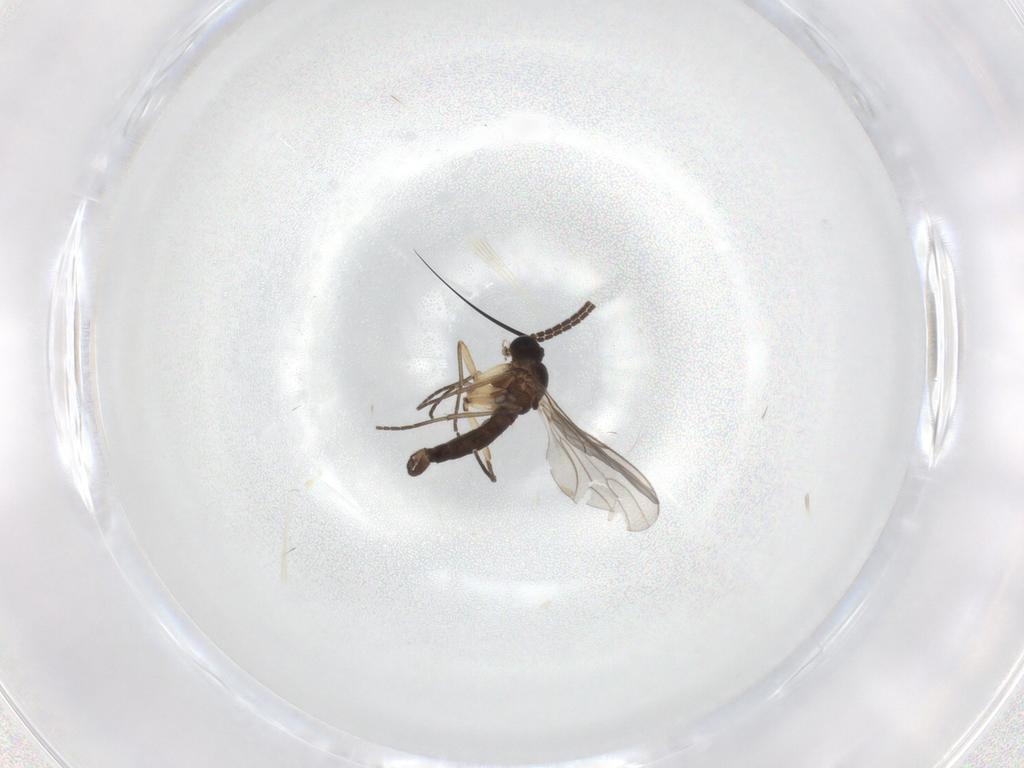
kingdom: Animalia
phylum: Arthropoda
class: Insecta
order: Diptera
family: Sciaridae
